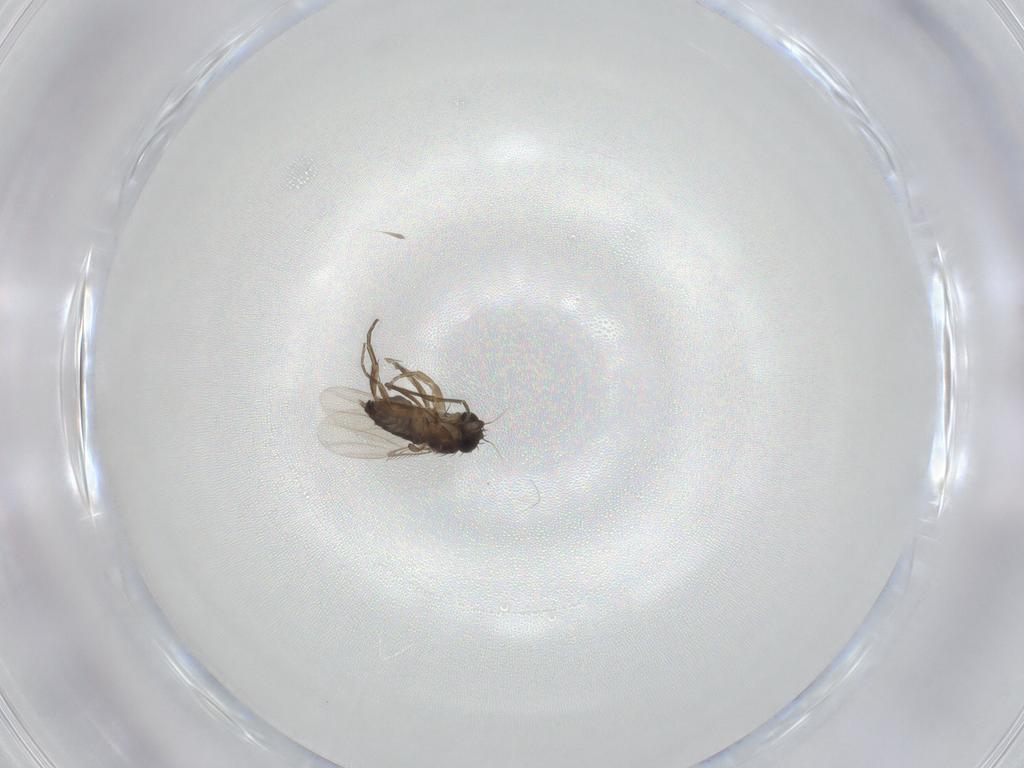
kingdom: Animalia
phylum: Arthropoda
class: Insecta
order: Diptera
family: Phoridae
